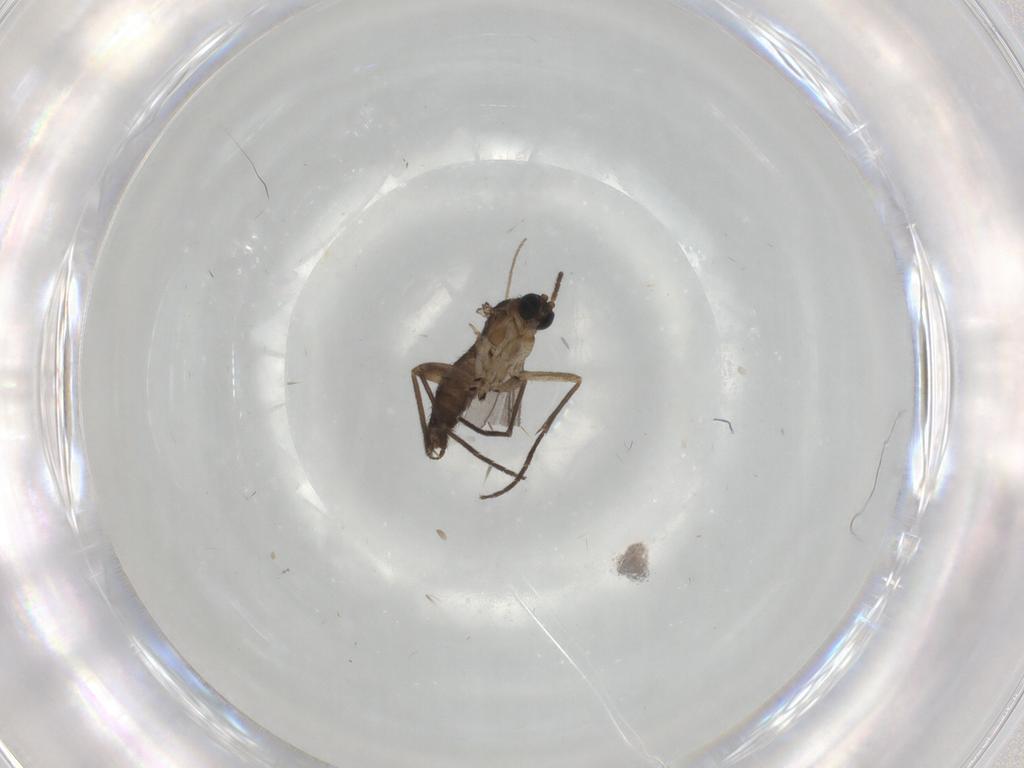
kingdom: Animalia
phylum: Arthropoda
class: Insecta
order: Diptera
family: Sciaridae
